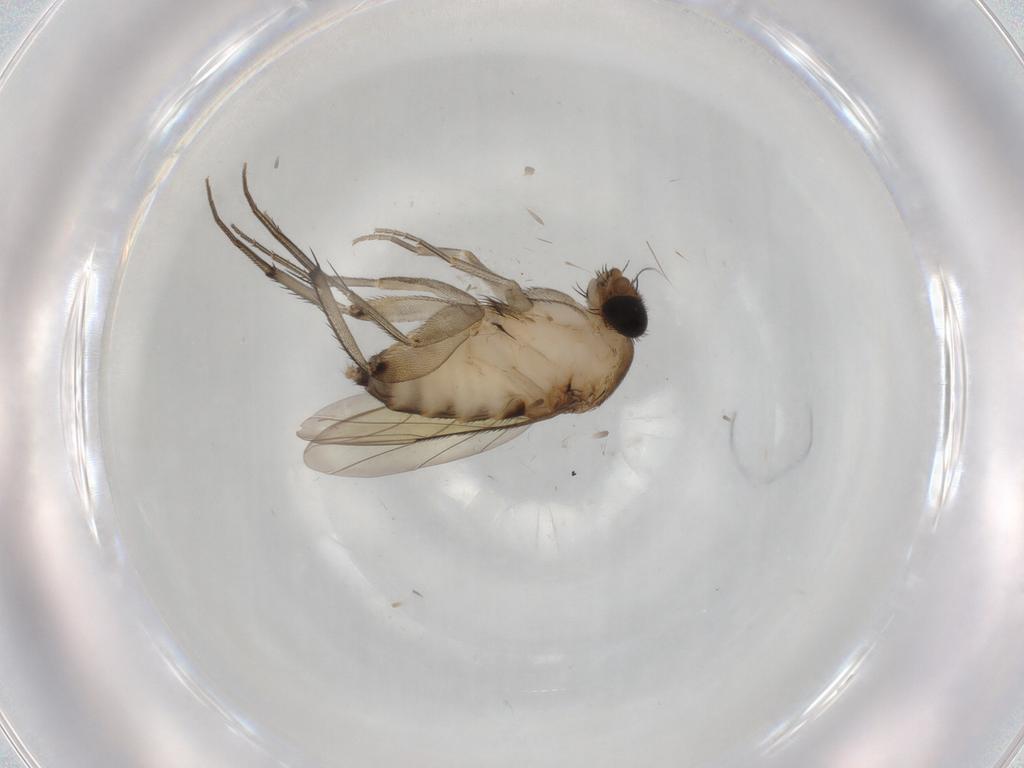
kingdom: Animalia
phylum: Arthropoda
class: Insecta
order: Diptera
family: Phoridae
